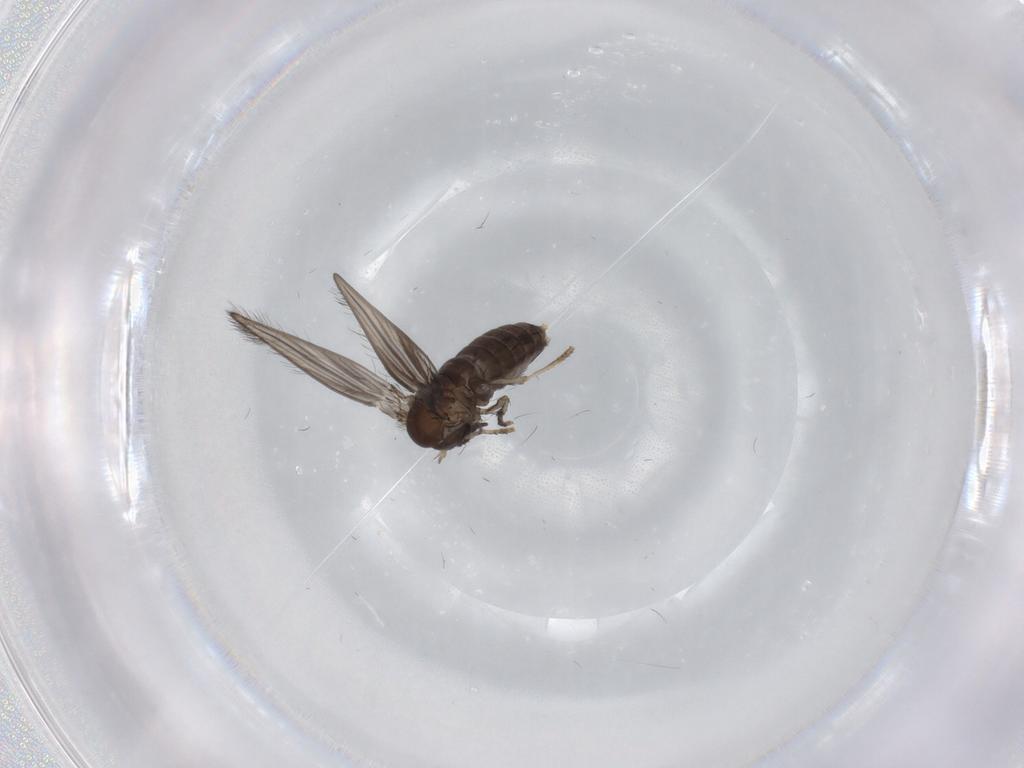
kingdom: Animalia
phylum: Arthropoda
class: Insecta
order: Diptera
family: Psychodidae
